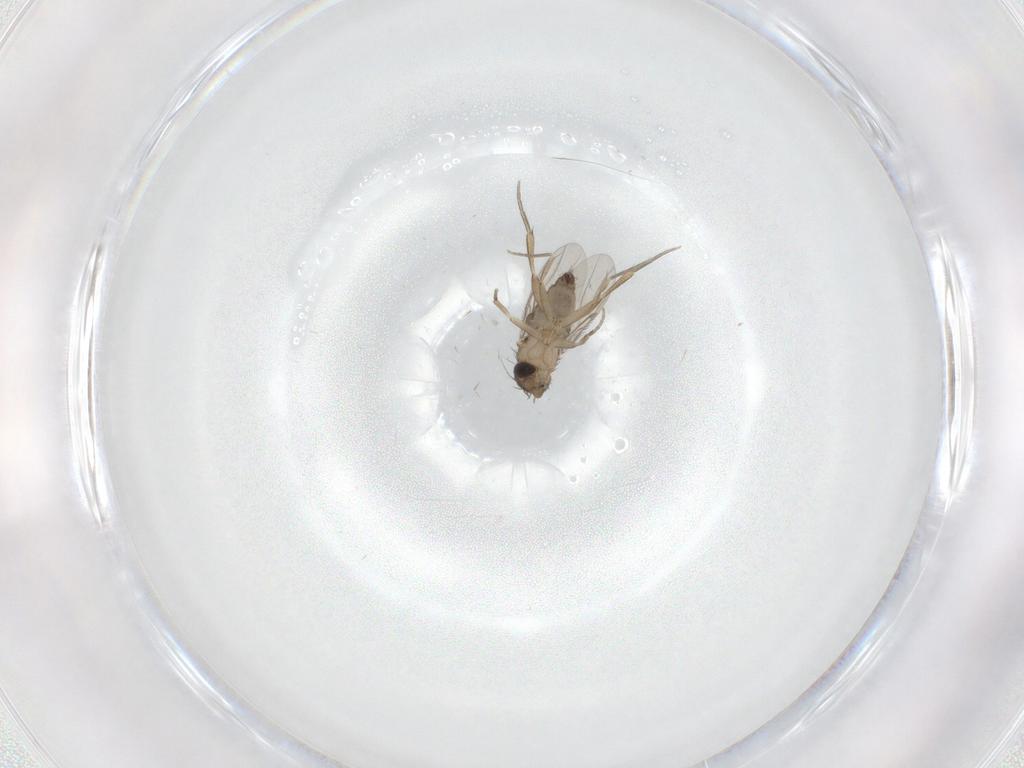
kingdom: Animalia
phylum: Arthropoda
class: Insecta
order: Diptera
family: Phoridae
